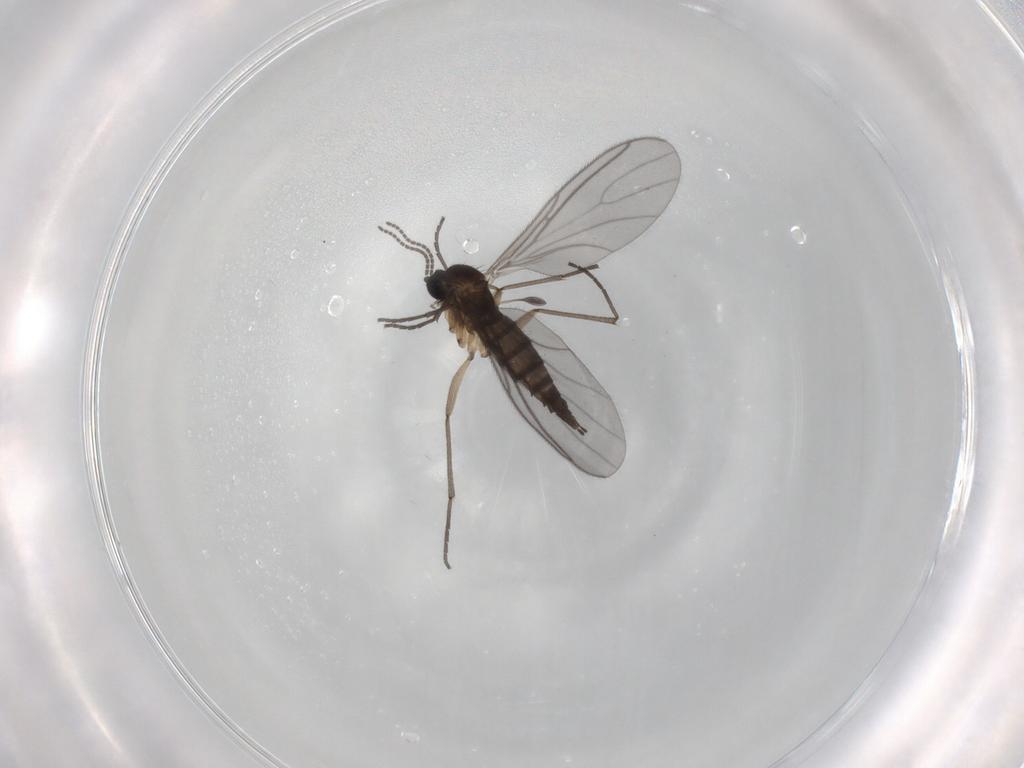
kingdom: Animalia
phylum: Arthropoda
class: Insecta
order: Diptera
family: Sciaridae
